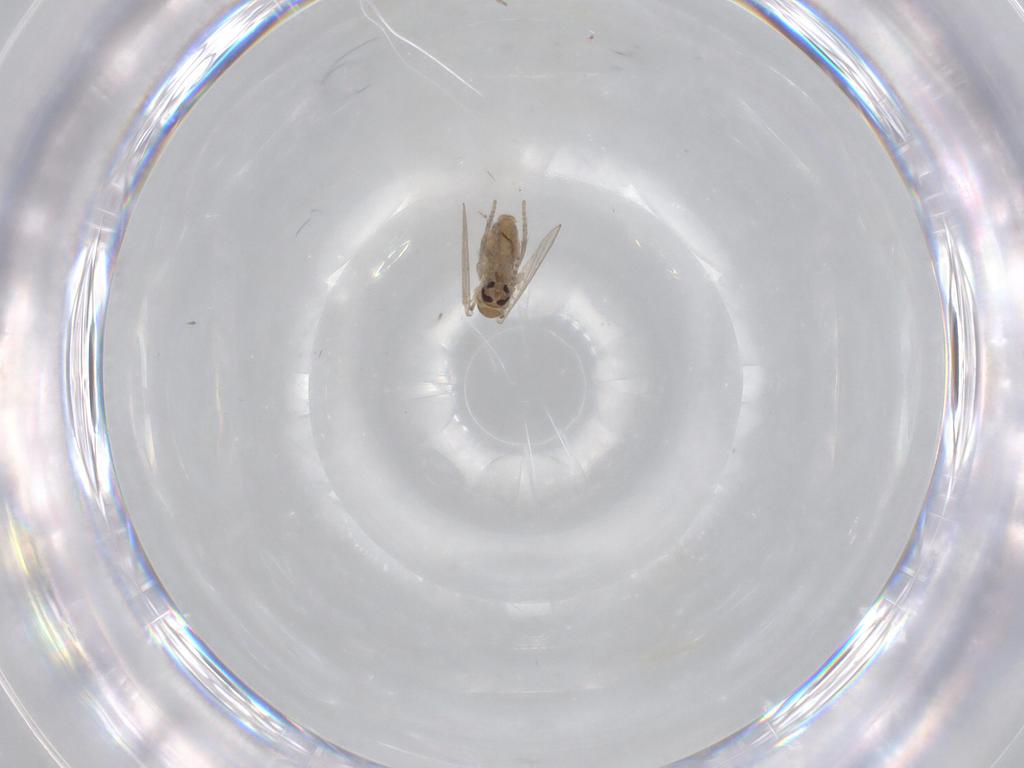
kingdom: Animalia
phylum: Arthropoda
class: Insecta
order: Diptera
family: Psychodidae
